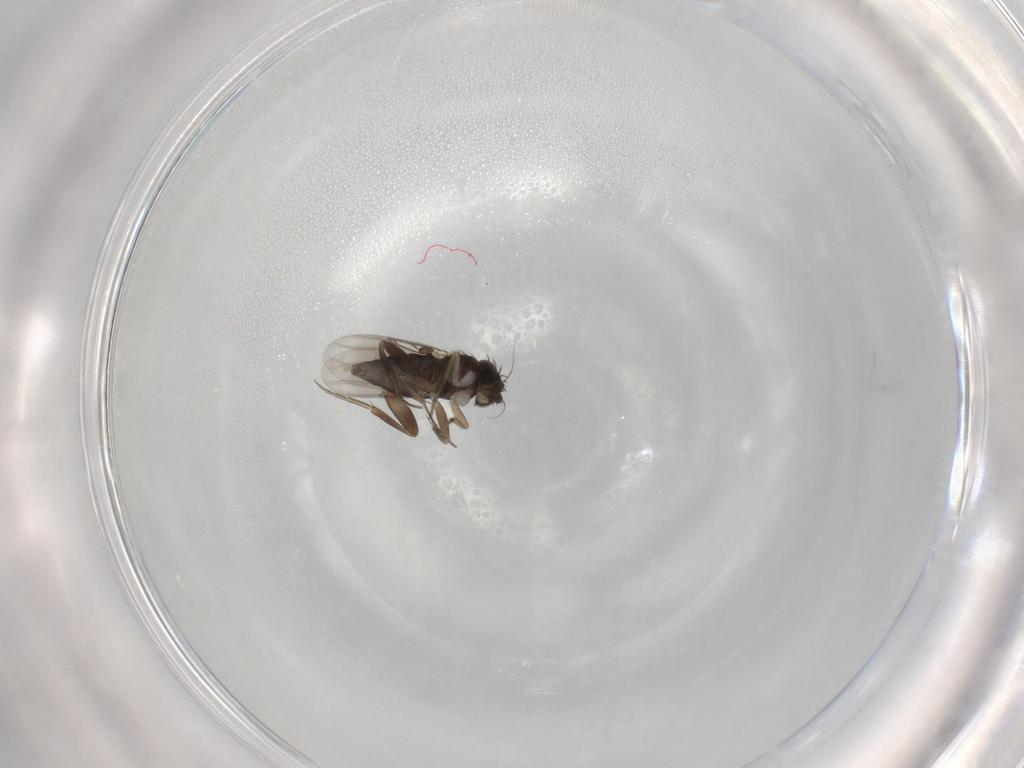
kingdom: Animalia
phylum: Arthropoda
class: Insecta
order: Diptera
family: Phoridae
